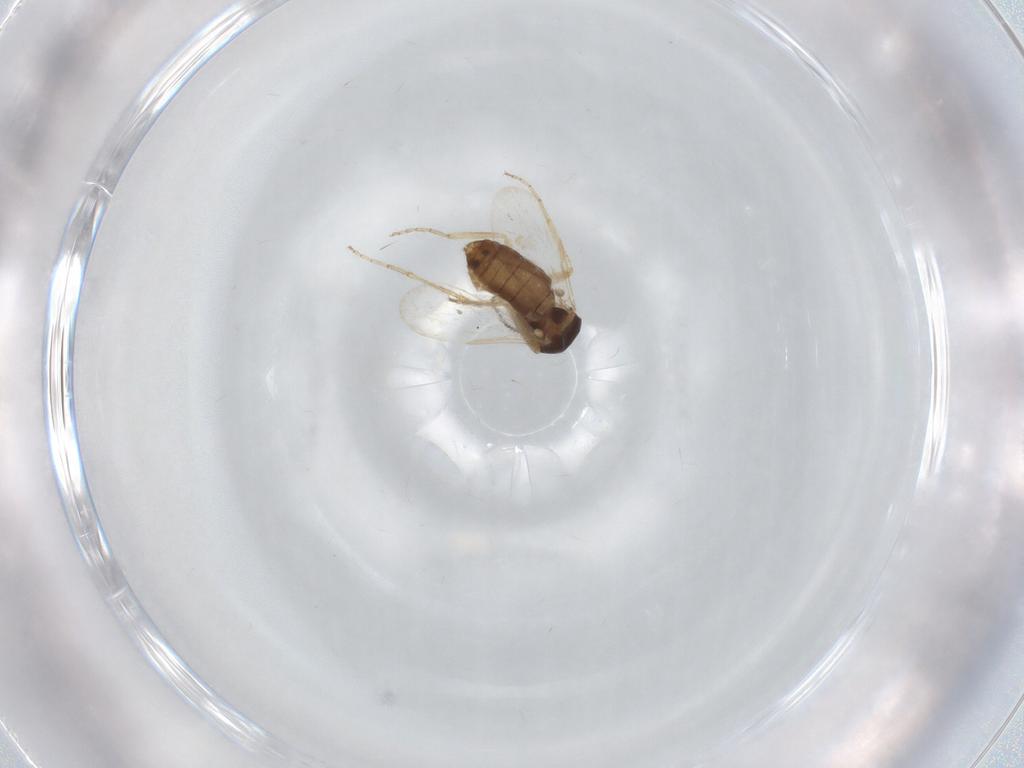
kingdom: Animalia
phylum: Arthropoda
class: Insecta
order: Diptera
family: Ceratopogonidae
